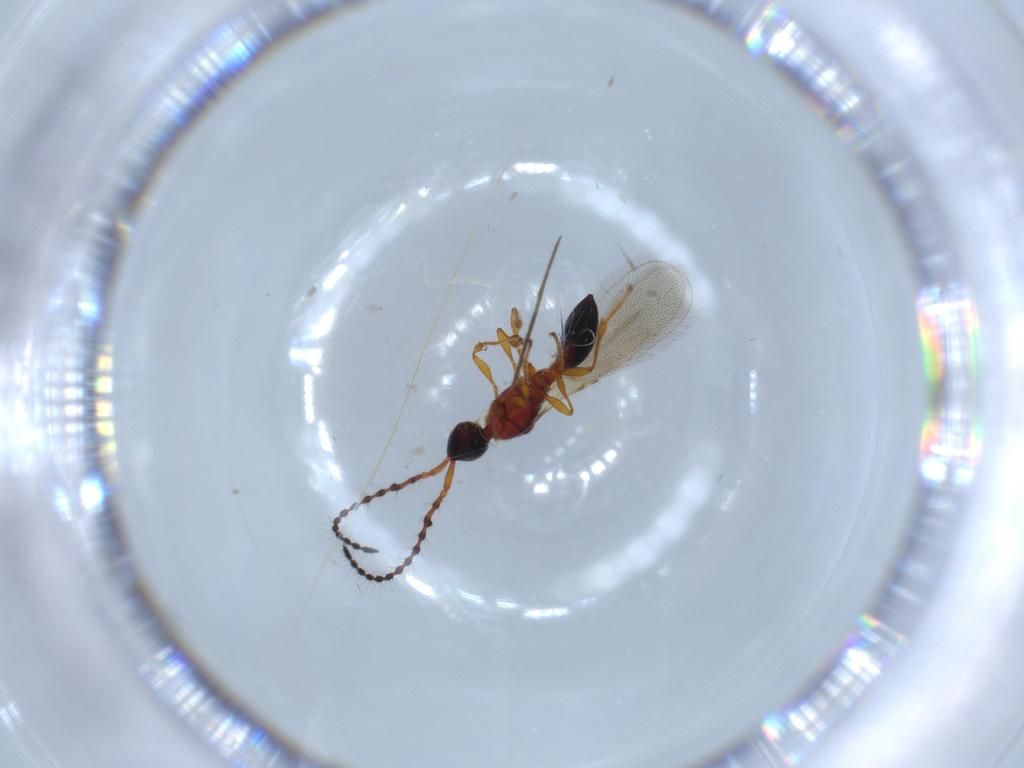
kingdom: Animalia
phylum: Arthropoda
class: Insecta
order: Hymenoptera
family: Diapriidae
